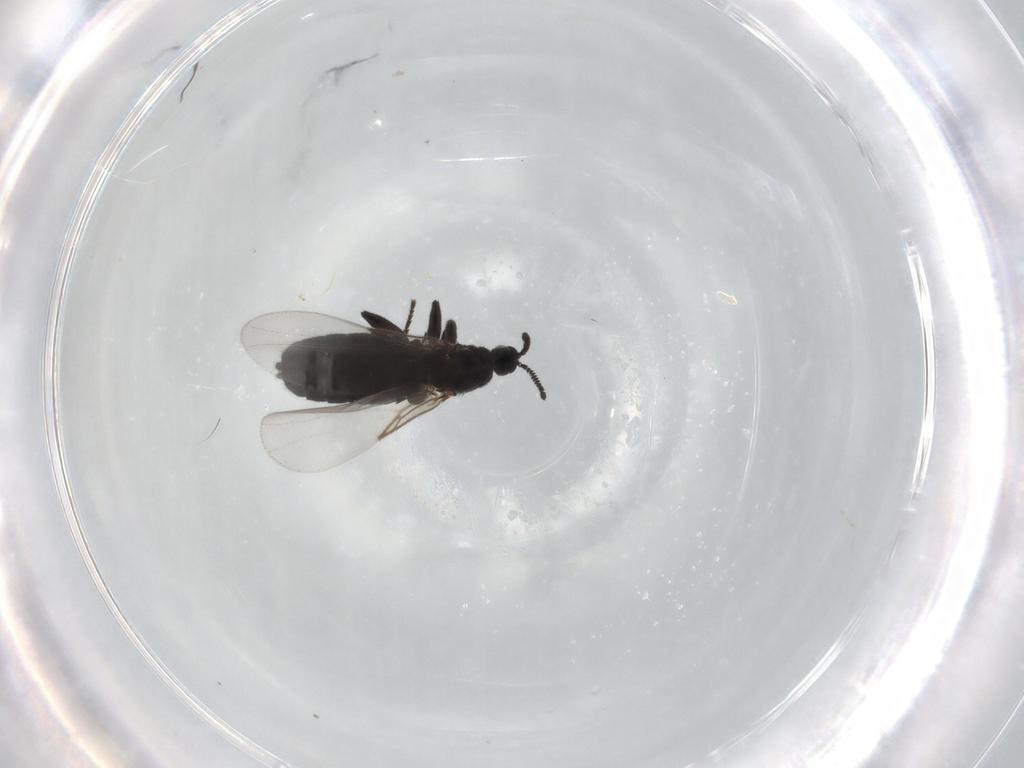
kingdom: Animalia
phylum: Arthropoda
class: Insecta
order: Diptera
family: Scatopsidae
